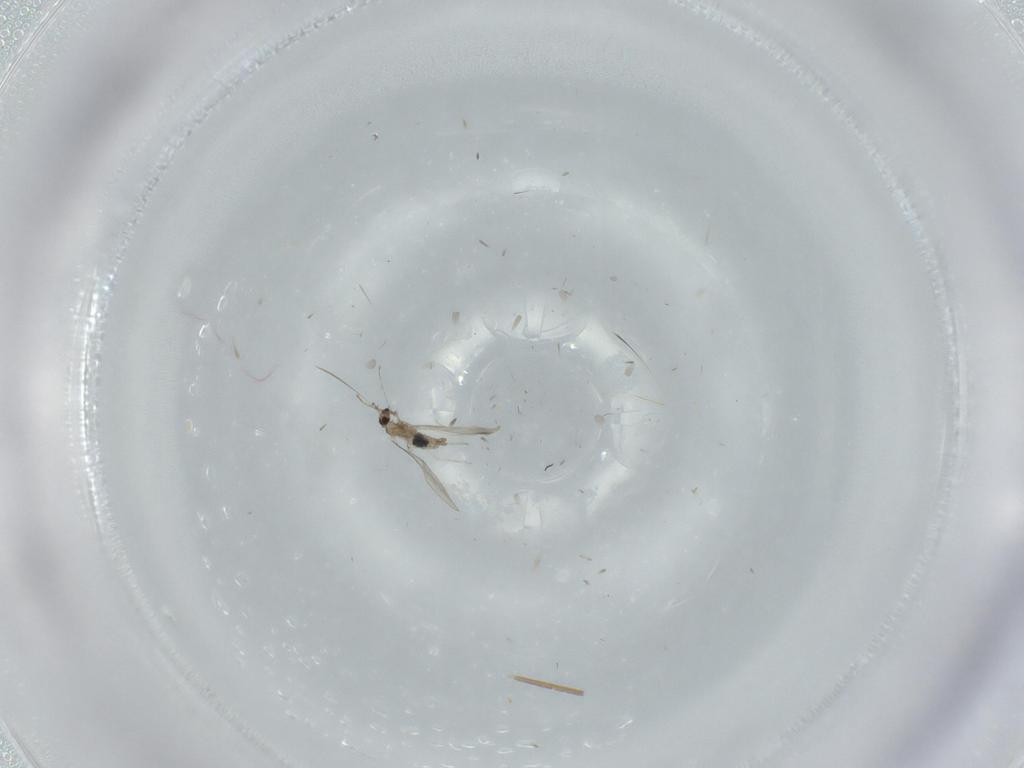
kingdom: Animalia
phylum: Arthropoda
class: Insecta
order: Diptera
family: Cecidomyiidae
